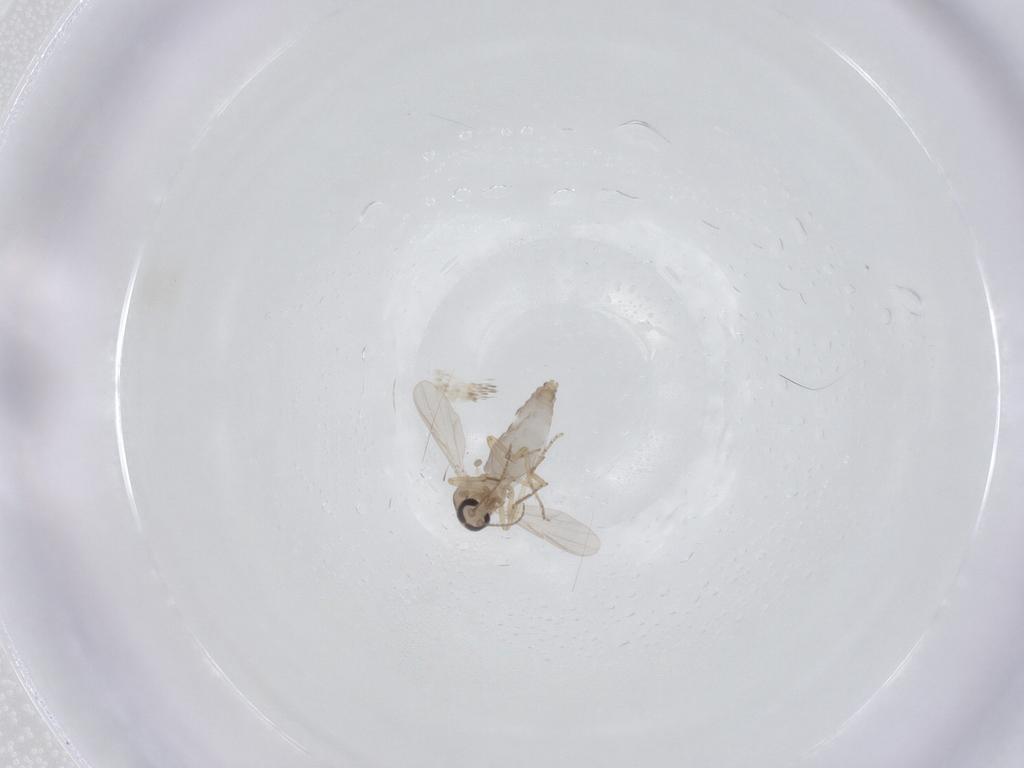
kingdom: Animalia
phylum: Arthropoda
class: Insecta
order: Diptera
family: Ceratopogonidae
